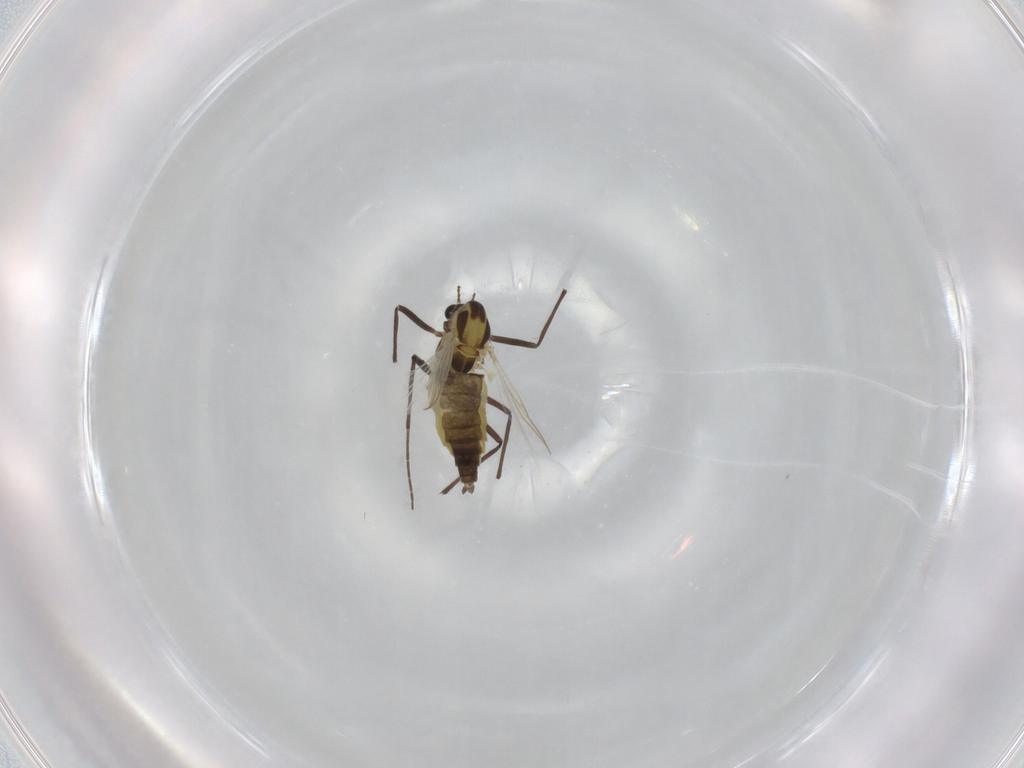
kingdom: Animalia
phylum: Arthropoda
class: Insecta
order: Diptera
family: Chironomidae
